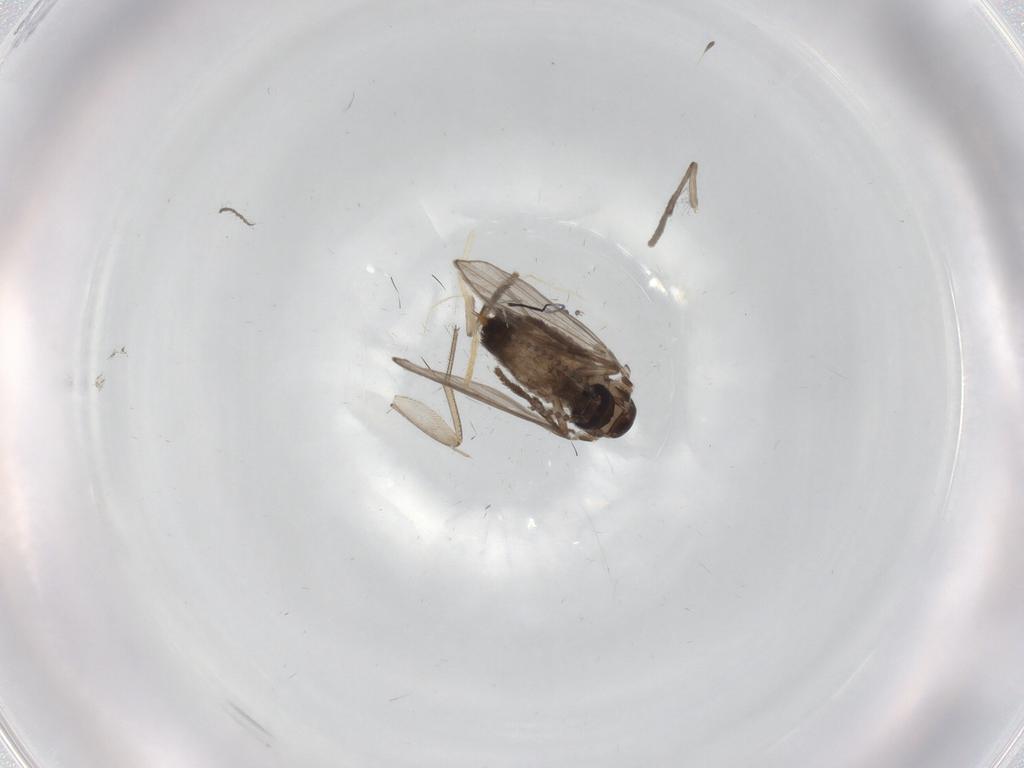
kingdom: Animalia
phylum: Arthropoda
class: Insecta
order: Diptera
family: Psychodidae
